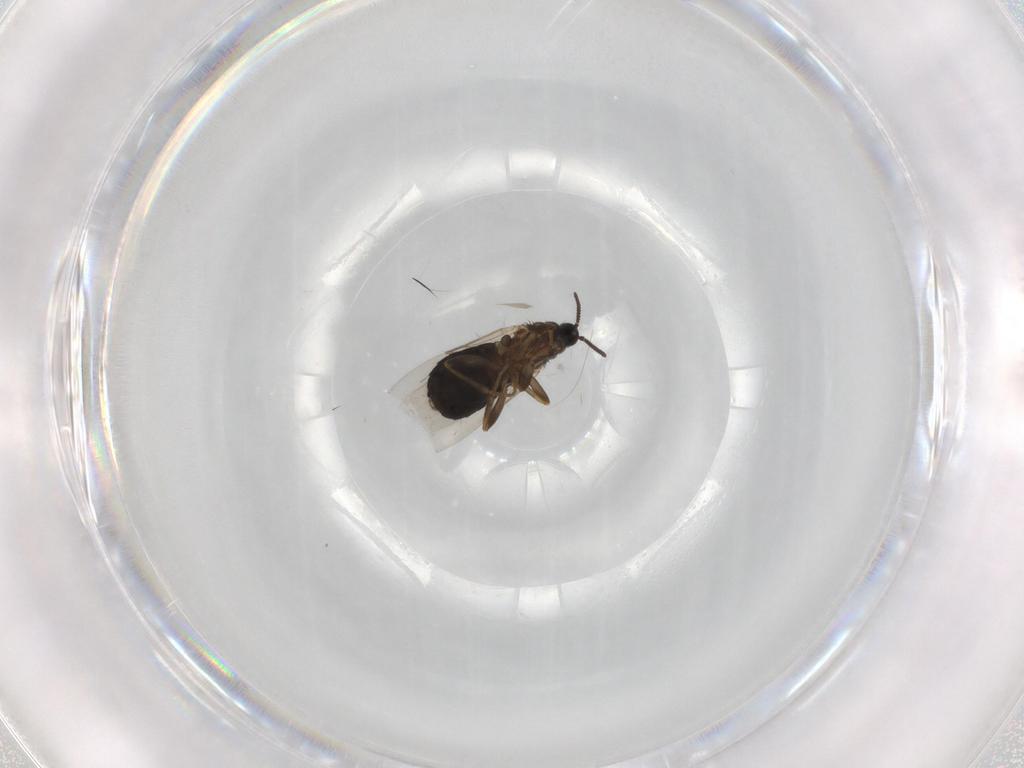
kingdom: Animalia
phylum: Arthropoda
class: Insecta
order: Diptera
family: Scatopsidae
